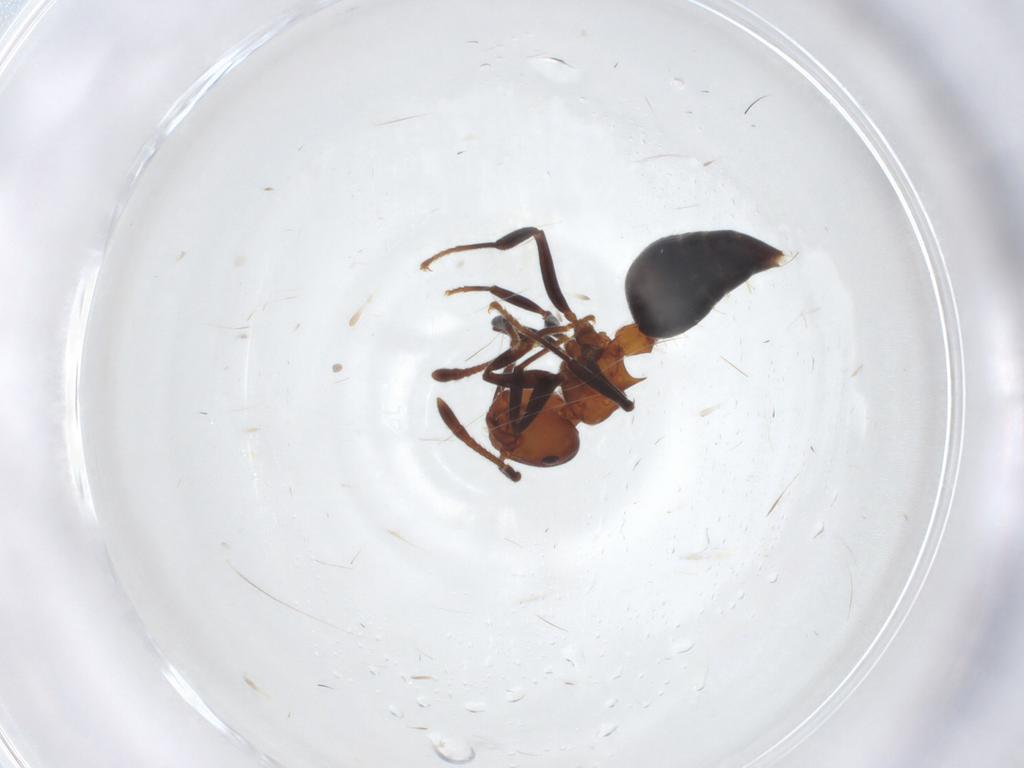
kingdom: Animalia
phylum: Arthropoda
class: Insecta
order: Hymenoptera
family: Formicidae
